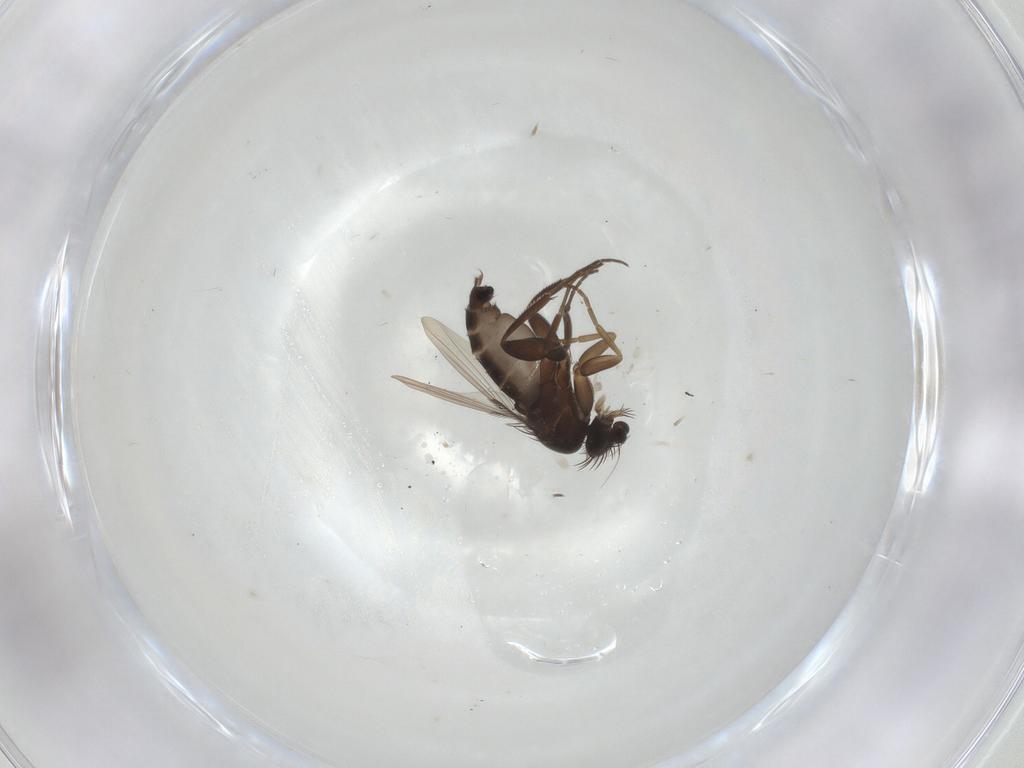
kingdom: Animalia
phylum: Arthropoda
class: Insecta
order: Diptera
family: Phoridae
